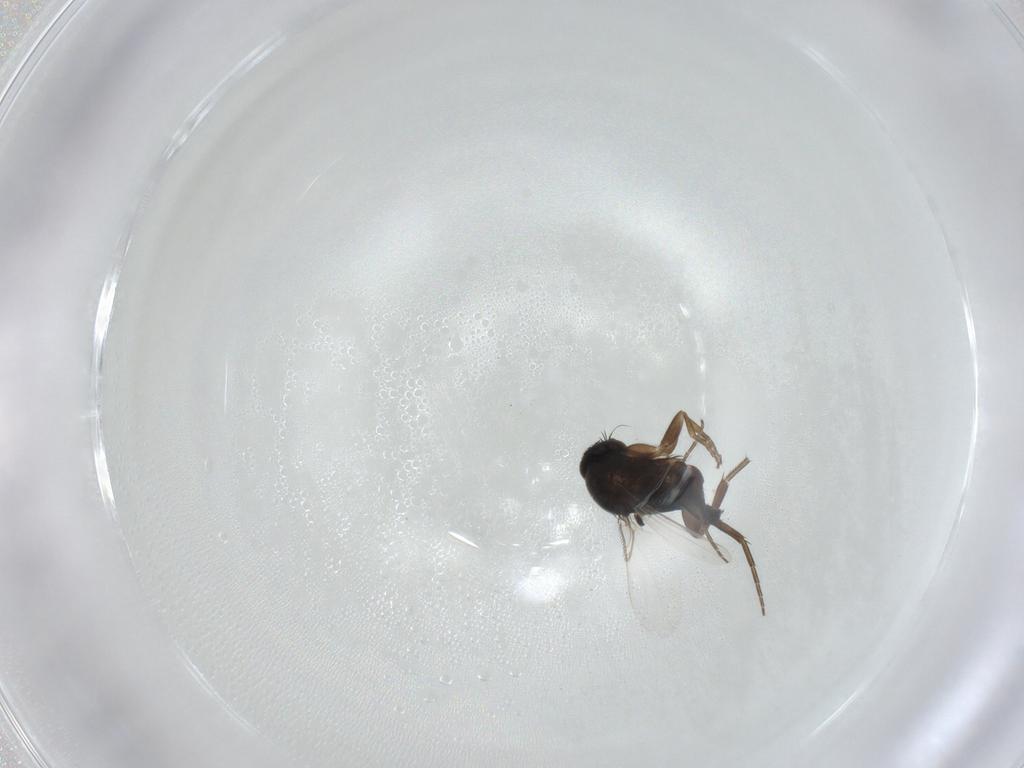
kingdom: Animalia
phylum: Arthropoda
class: Insecta
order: Diptera
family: Phoridae
